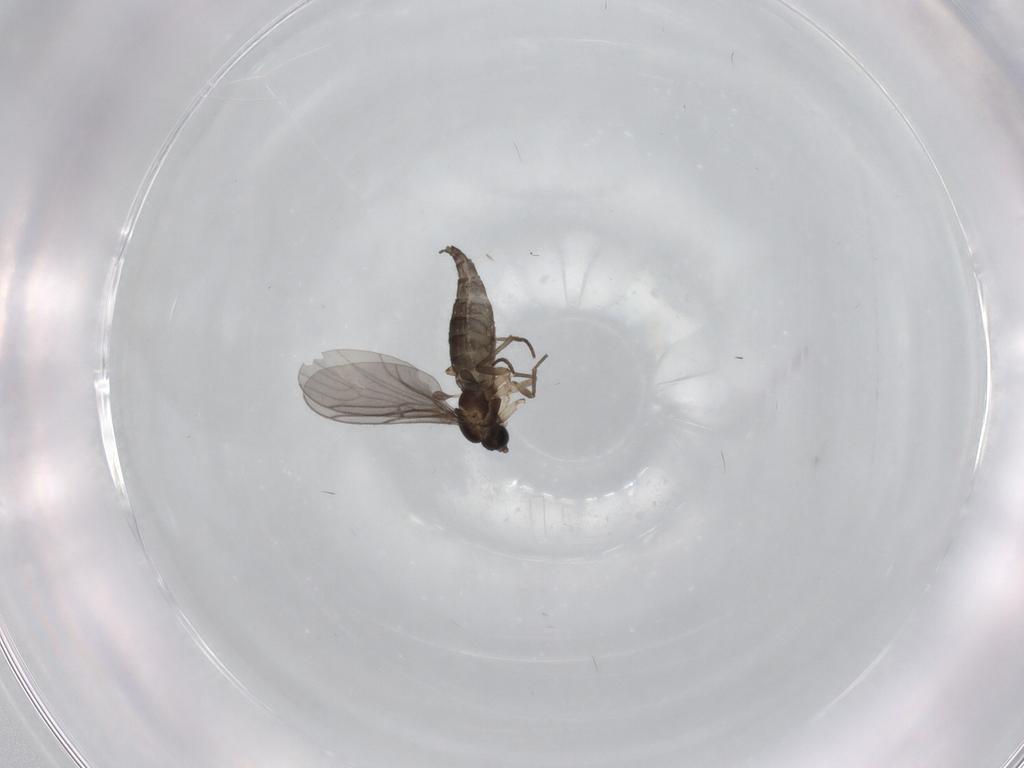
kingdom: Animalia
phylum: Arthropoda
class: Insecta
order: Diptera
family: Sciaridae
